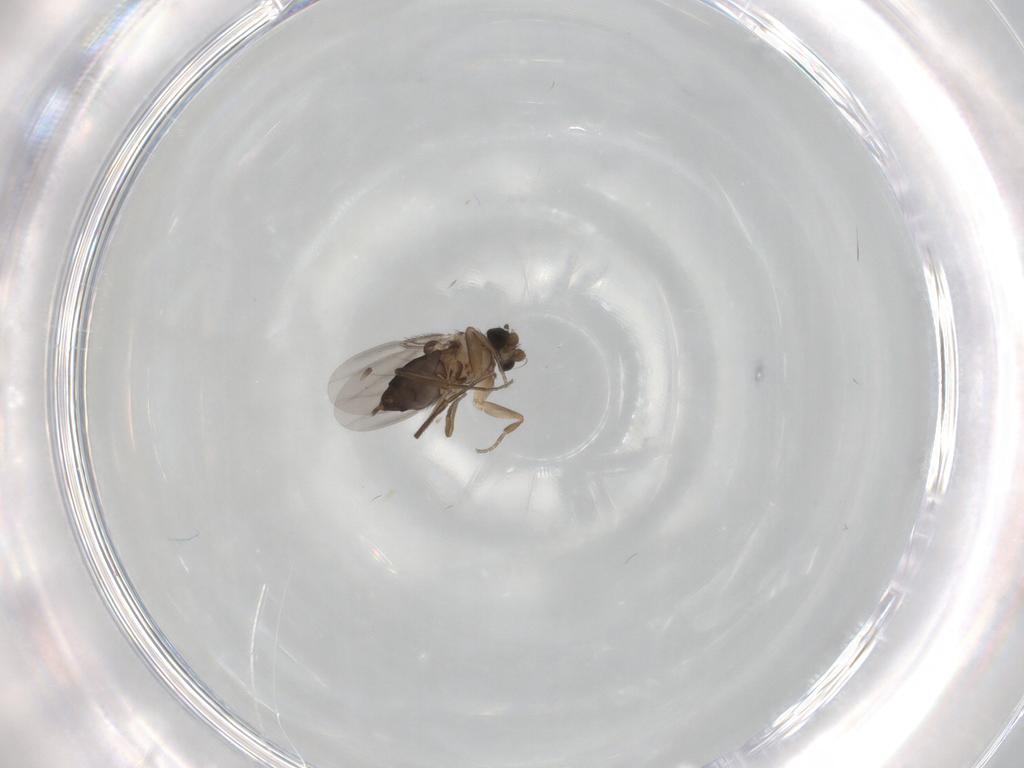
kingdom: Animalia
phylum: Arthropoda
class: Insecta
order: Diptera
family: Phoridae
